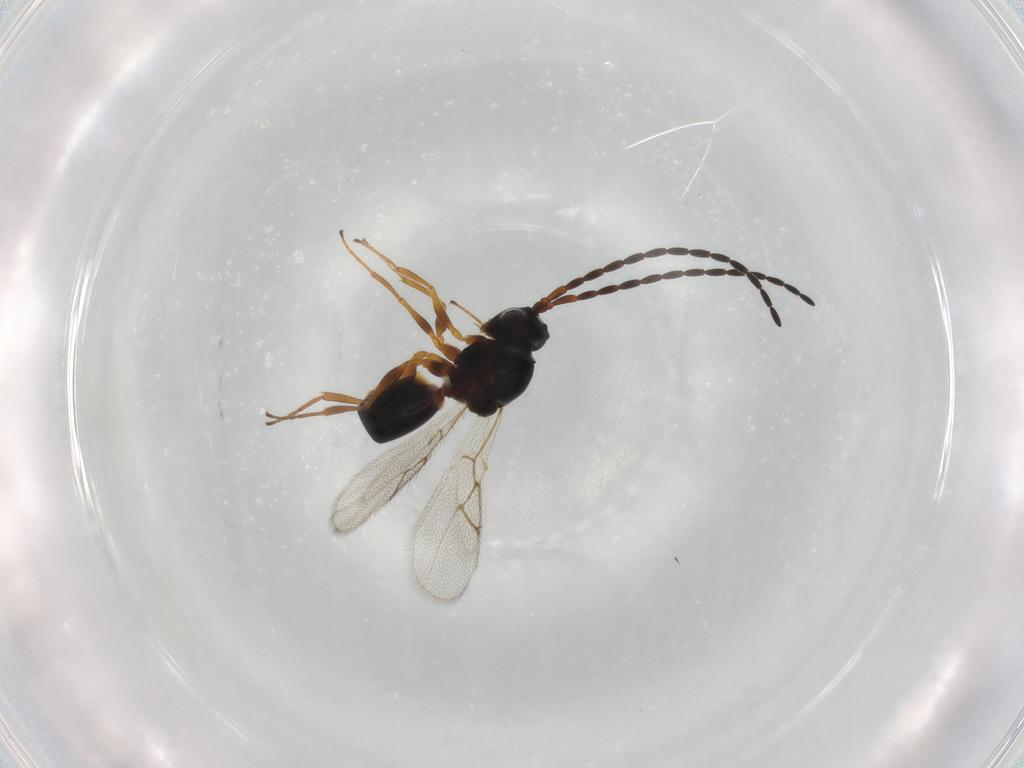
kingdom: Animalia
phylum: Arthropoda
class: Insecta
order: Hymenoptera
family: Figitidae
